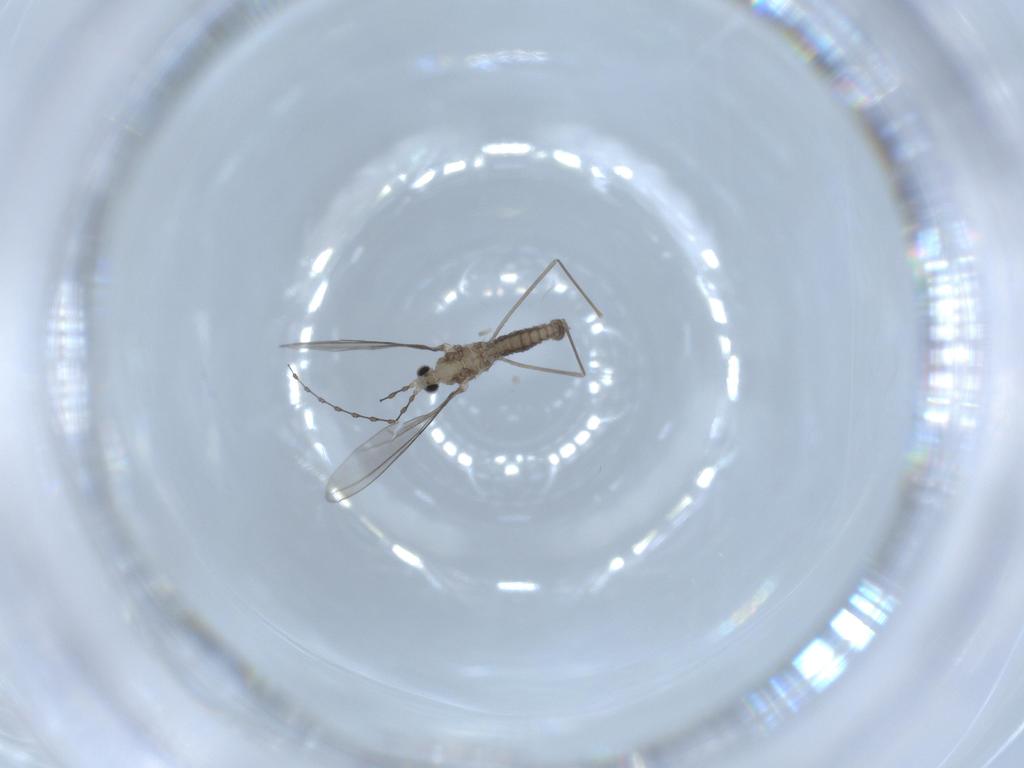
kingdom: Animalia
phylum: Arthropoda
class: Insecta
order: Diptera
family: Cecidomyiidae
